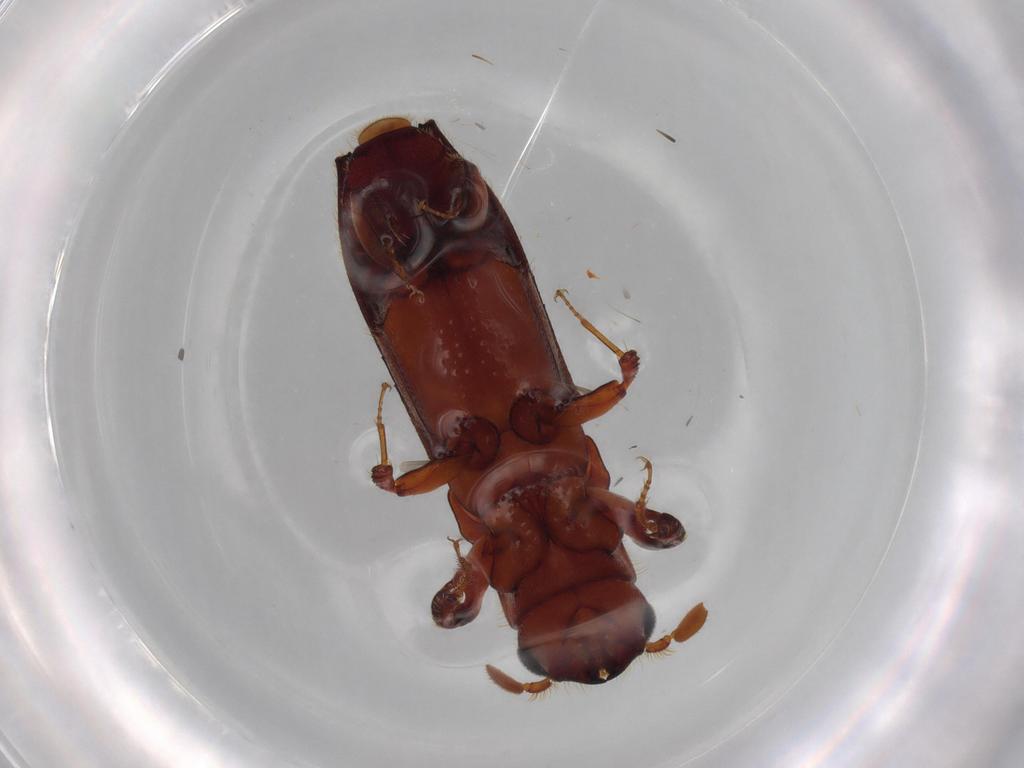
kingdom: Animalia
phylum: Arthropoda
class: Insecta
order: Coleoptera
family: Curculionidae
